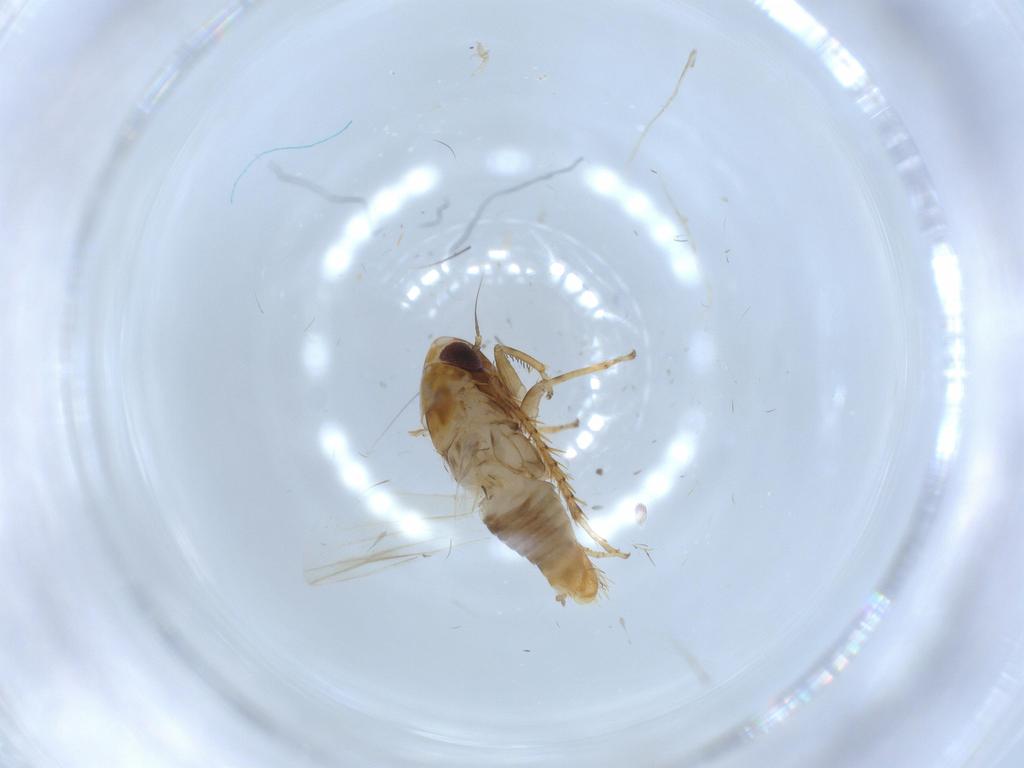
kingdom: Animalia
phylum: Arthropoda
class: Insecta
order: Hemiptera
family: Cicadellidae
